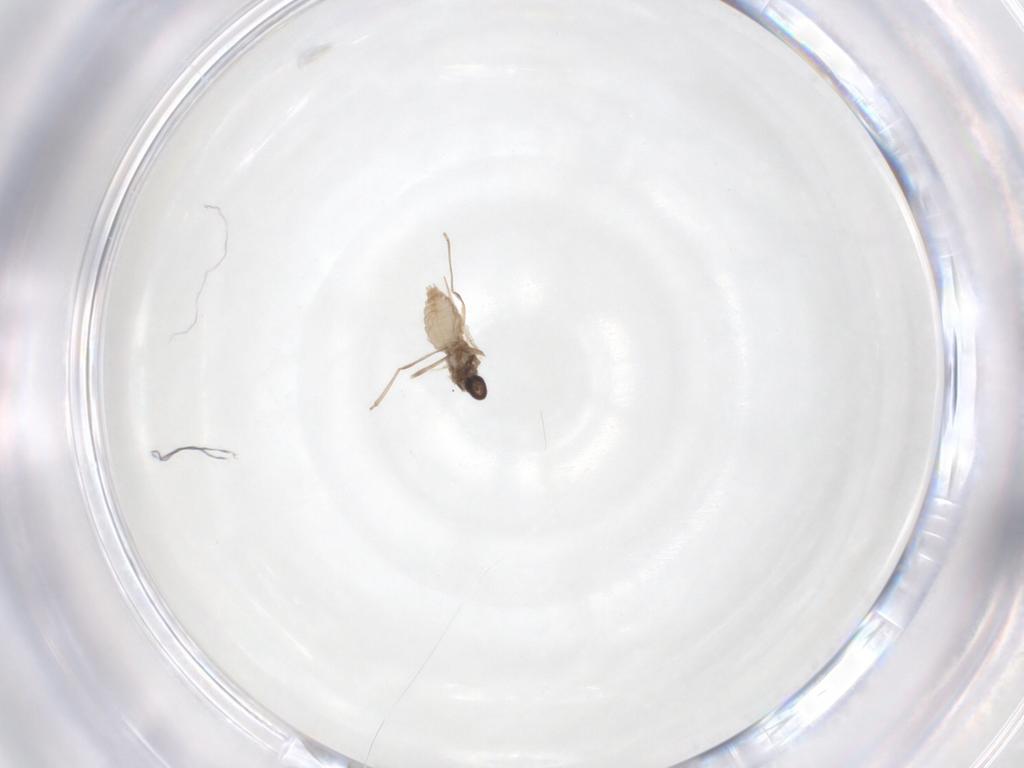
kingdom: Animalia
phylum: Arthropoda
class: Insecta
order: Diptera
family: Cecidomyiidae
